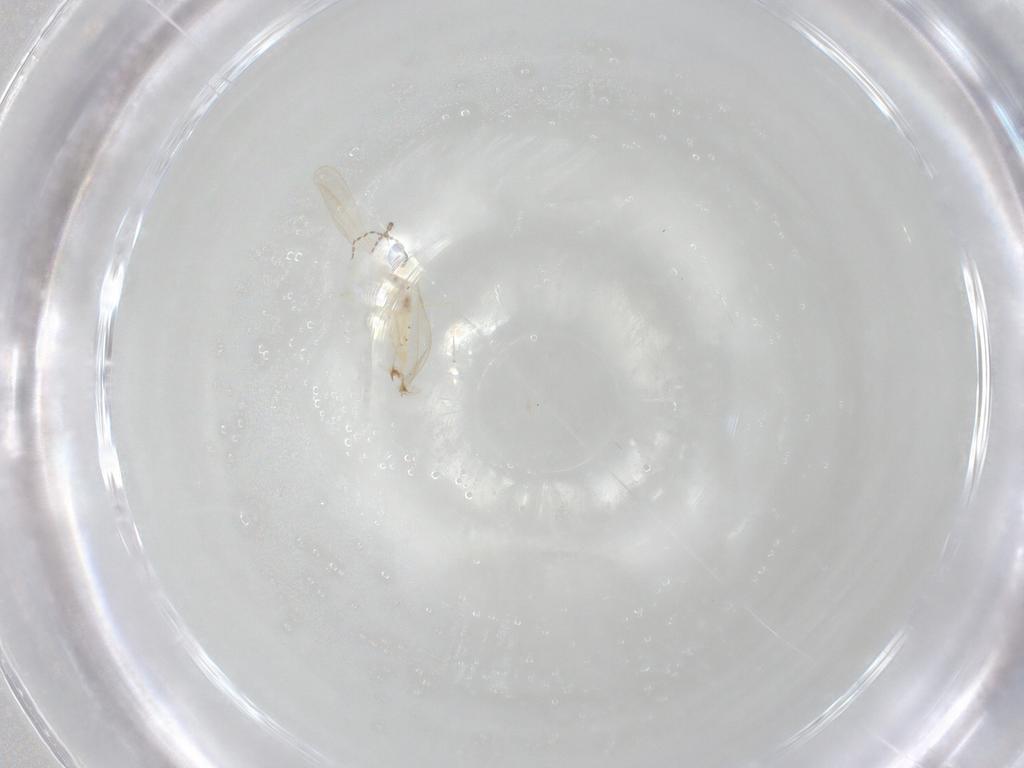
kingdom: Animalia
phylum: Arthropoda
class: Insecta
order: Diptera
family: Cecidomyiidae
